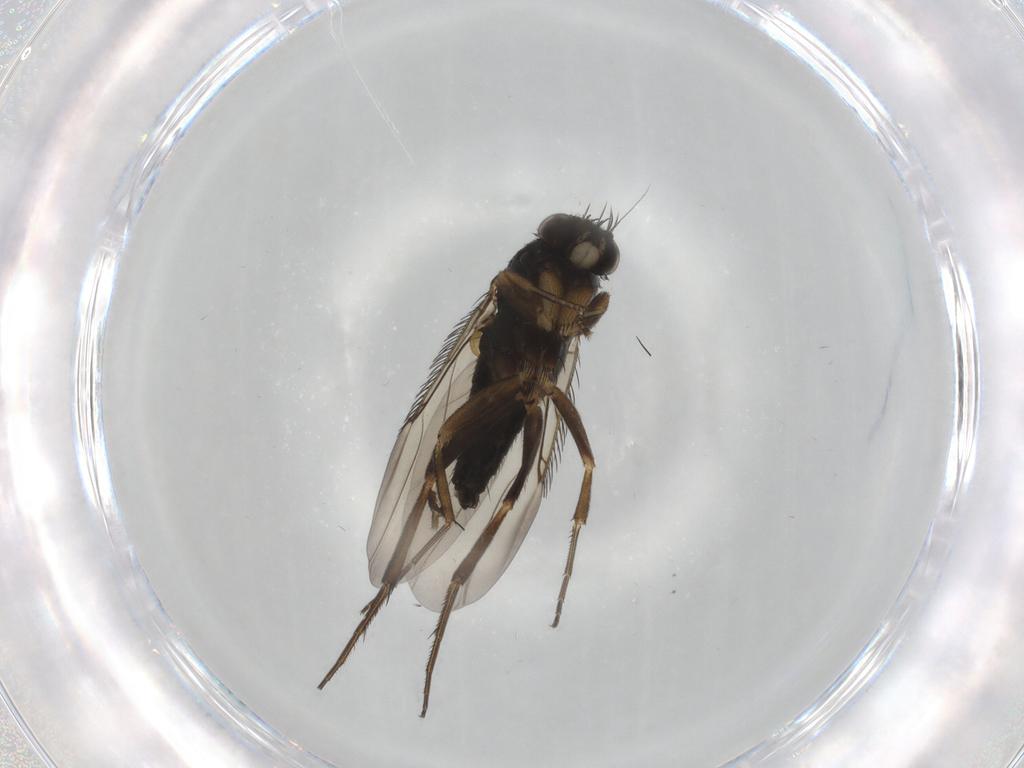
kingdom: Animalia
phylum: Arthropoda
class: Insecta
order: Diptera
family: Phoridae
